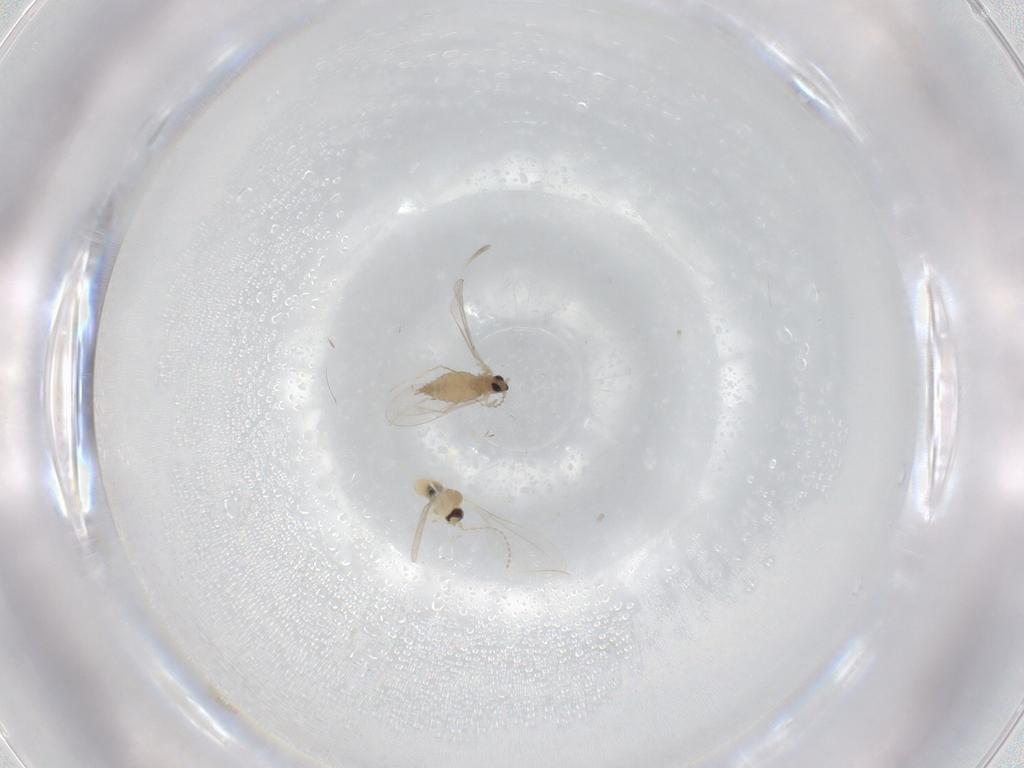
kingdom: Animalia
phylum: Arthropoda
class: Insecta
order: Diptera
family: Cecidomyiidae
